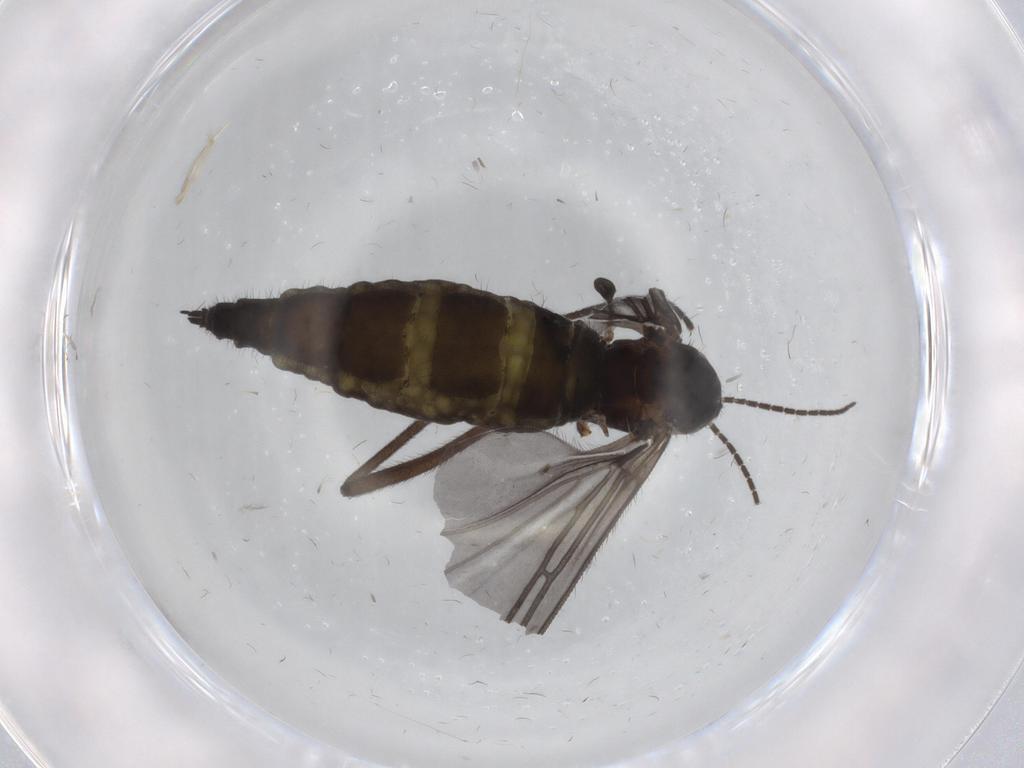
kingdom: Animalia
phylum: Arthropoda
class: Insecta
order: Diptera
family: Sciaridae
